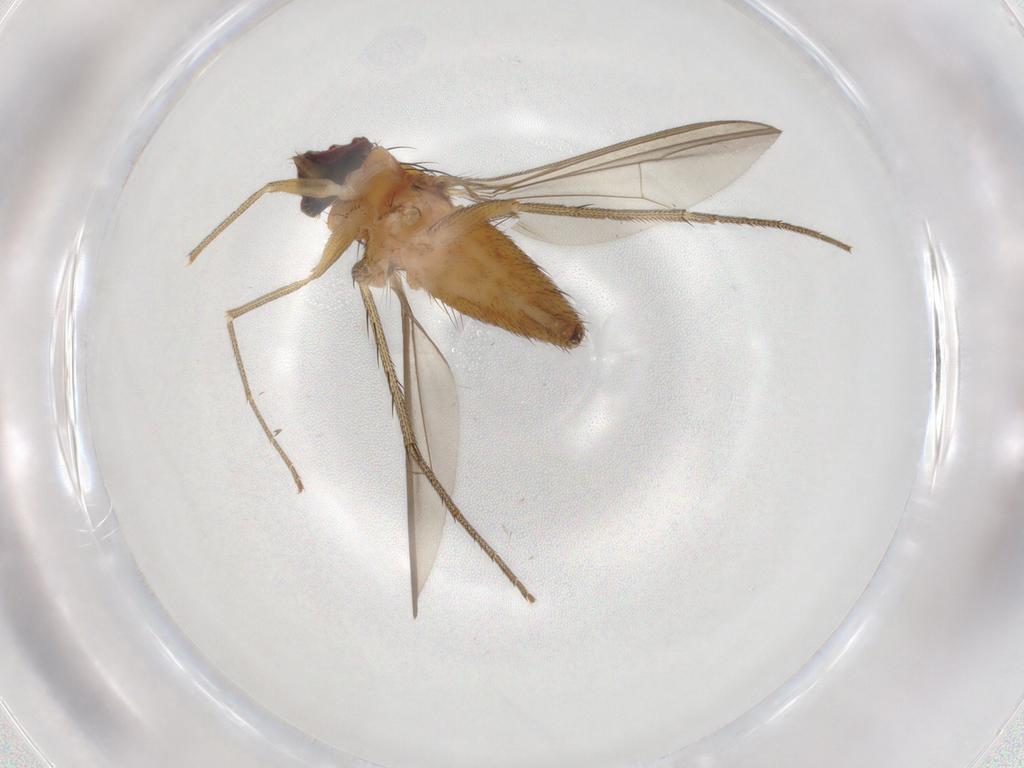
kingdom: Animalia
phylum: Arthropoda
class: Insecta
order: Diptera
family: Dolichopodidae
